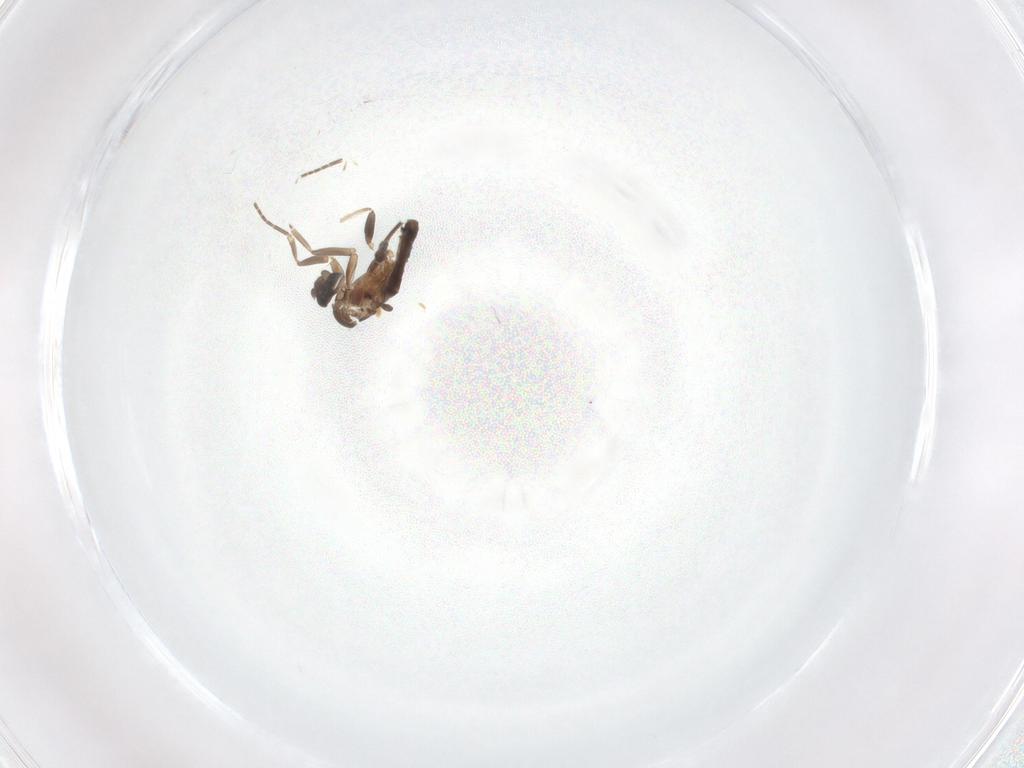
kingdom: Animalia
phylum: Arthropoda
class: Insecta
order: Diptera
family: Chironomidae
